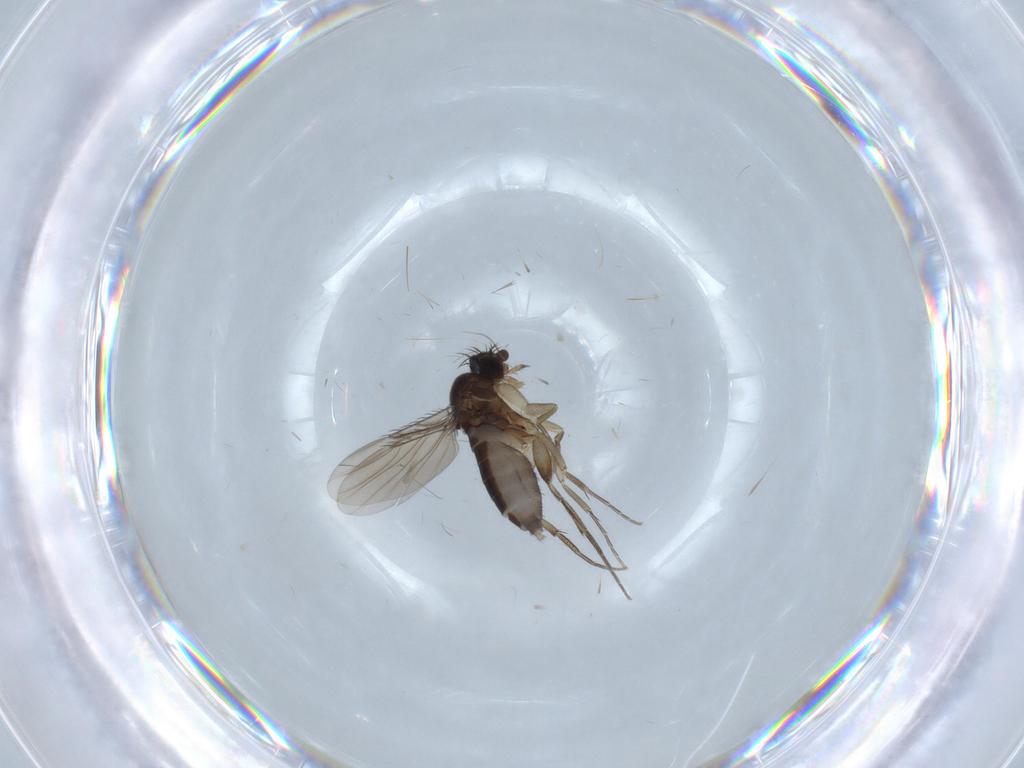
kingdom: Animalia
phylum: Arthropoda
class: Insecta
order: Diptera
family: Phoridae
